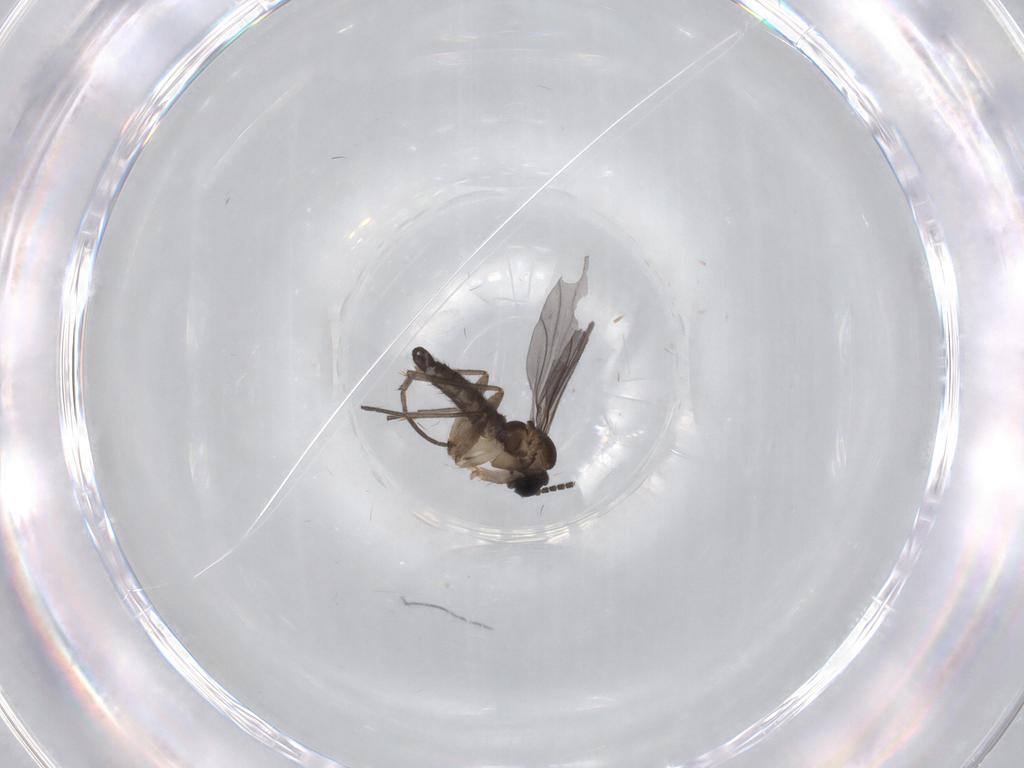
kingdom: Animalia
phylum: Arthropoda
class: Insecta
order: Diptera
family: Sciaridae
